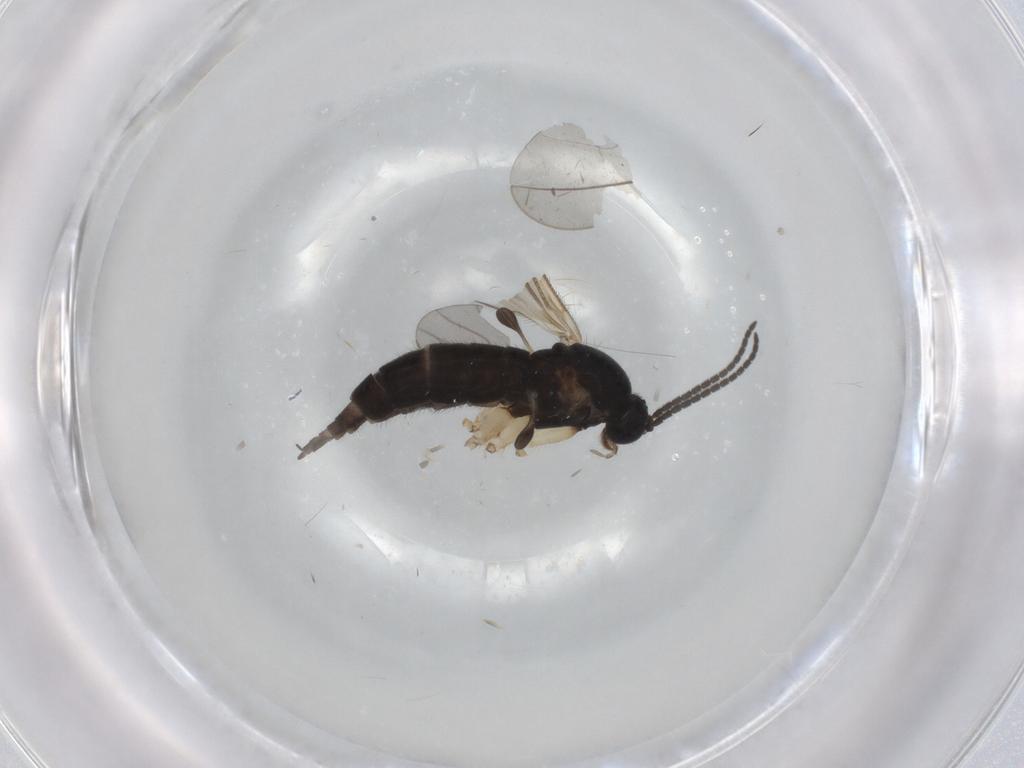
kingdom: Animalia
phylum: Arthropoda
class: Insecta
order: Diptera
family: Sciaridae
